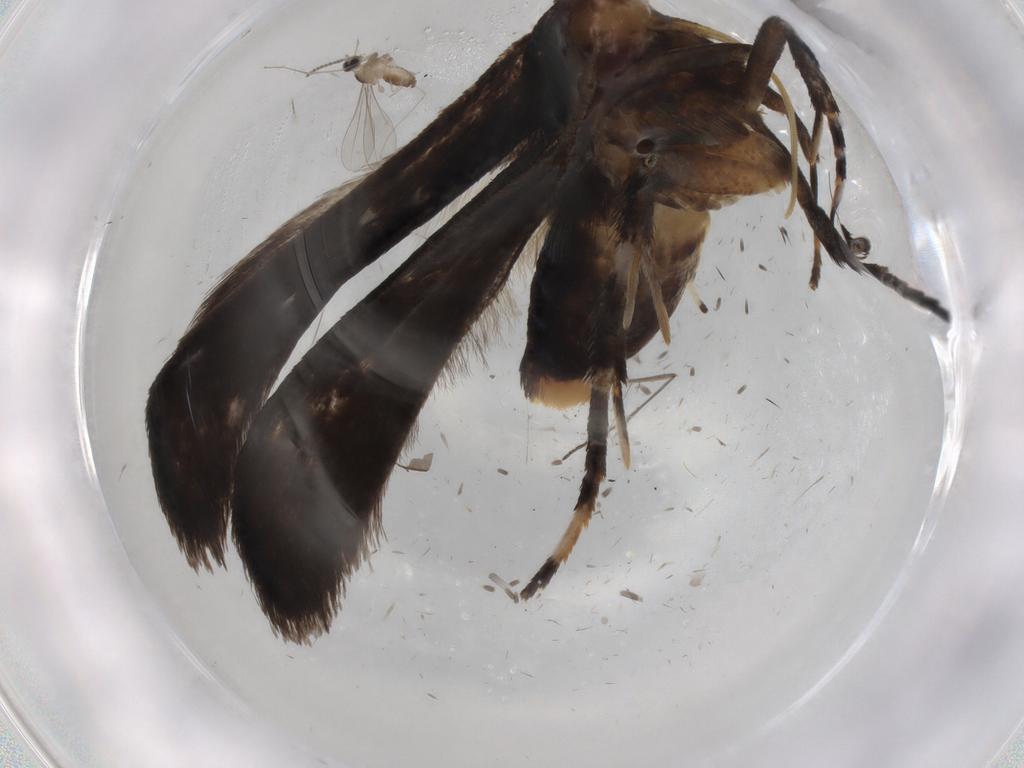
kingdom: Animalia
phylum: Arthropoda
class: Insecta
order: Lepidoptera
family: Gelechiidae
